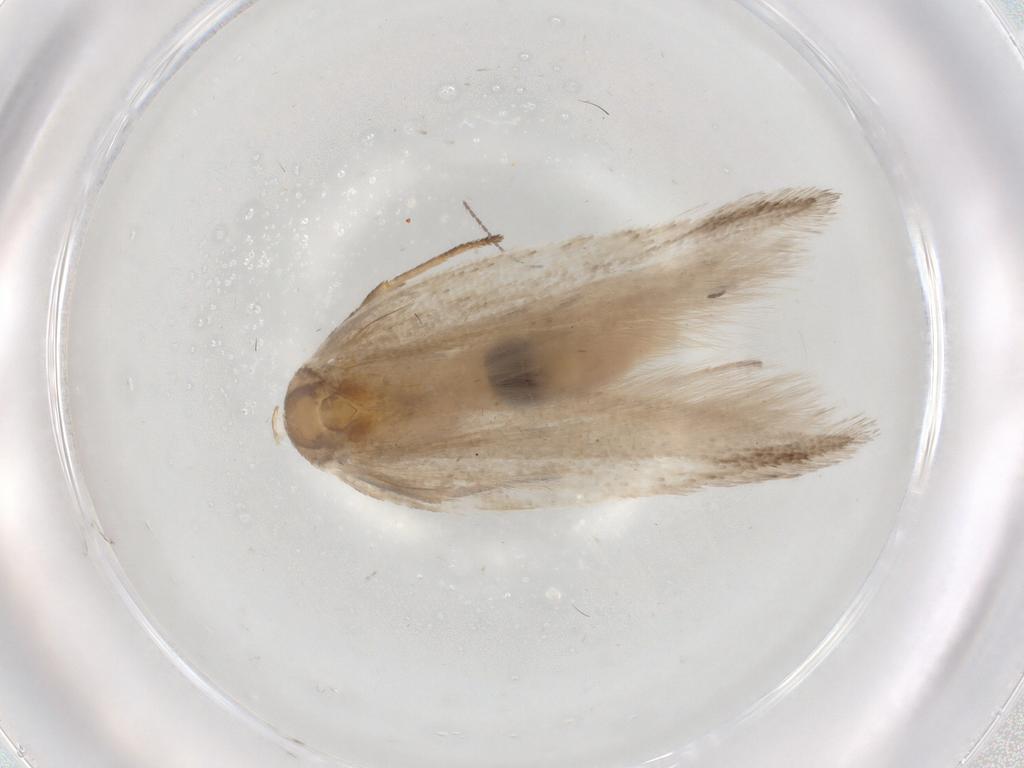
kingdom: Animalia
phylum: Arthropoda
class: Insecta
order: Lepidoptera
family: Gelechiidae
